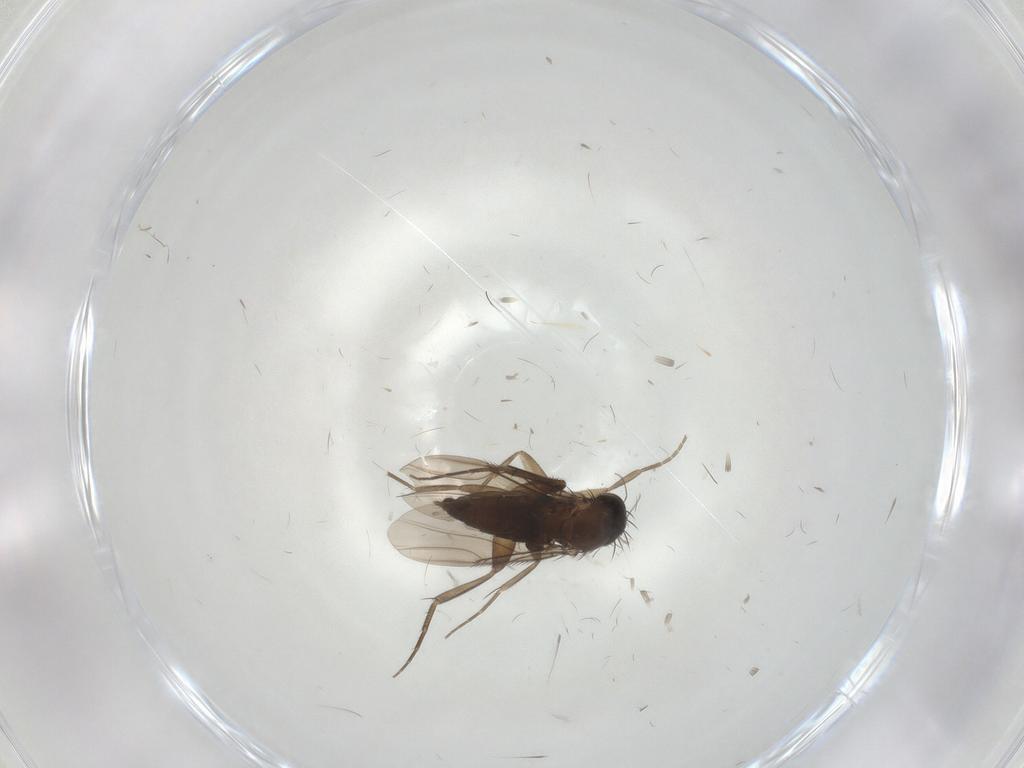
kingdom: Animalia
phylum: Arthropoda
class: Insecta
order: Diptera
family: Phoridae
